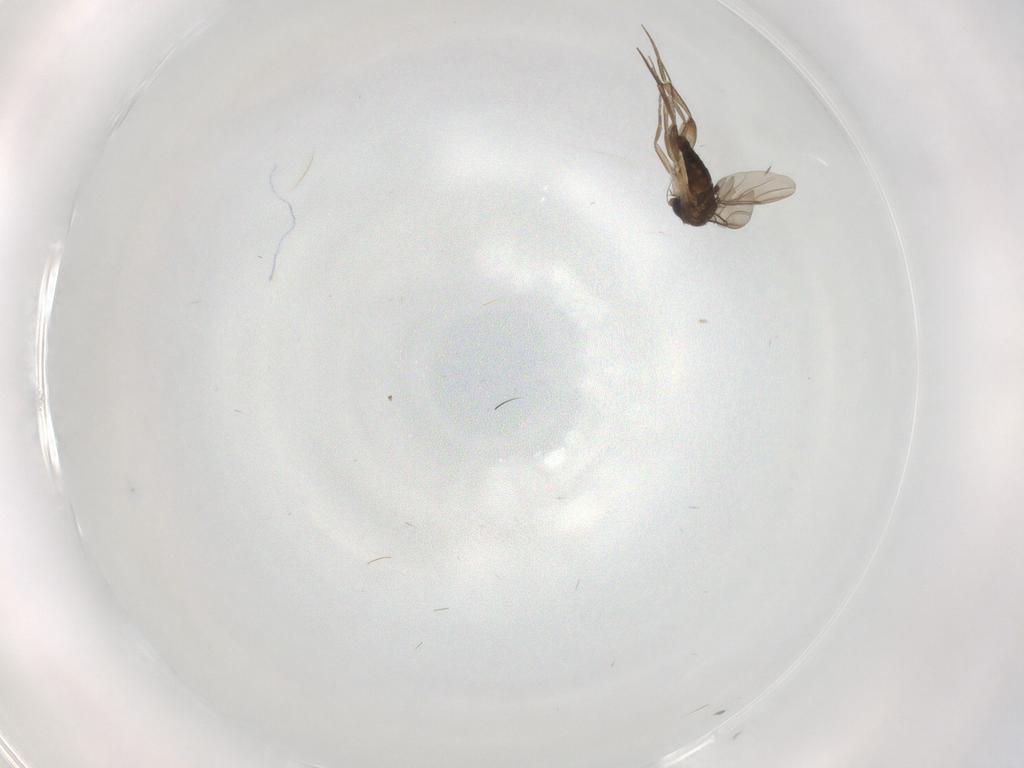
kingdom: Animalia
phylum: Arthropoda
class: Insecta
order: Diptera
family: Phoridae
